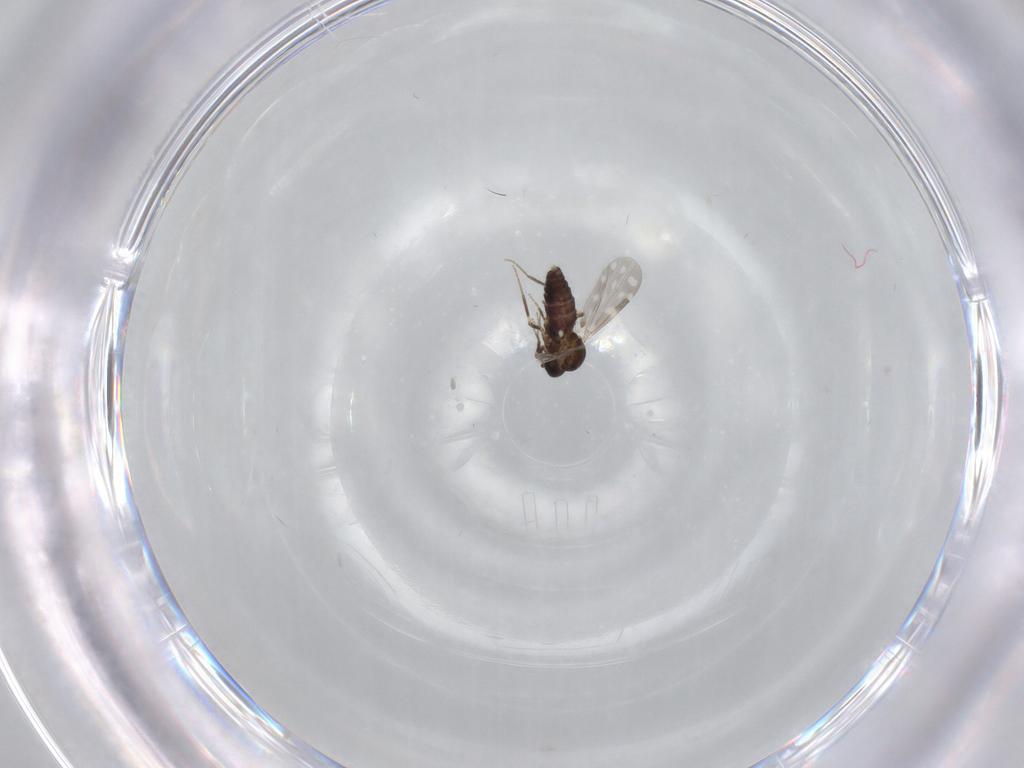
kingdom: Animalia
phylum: Arthropoda
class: Insecta
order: Diptera
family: Ceratopogonidae
